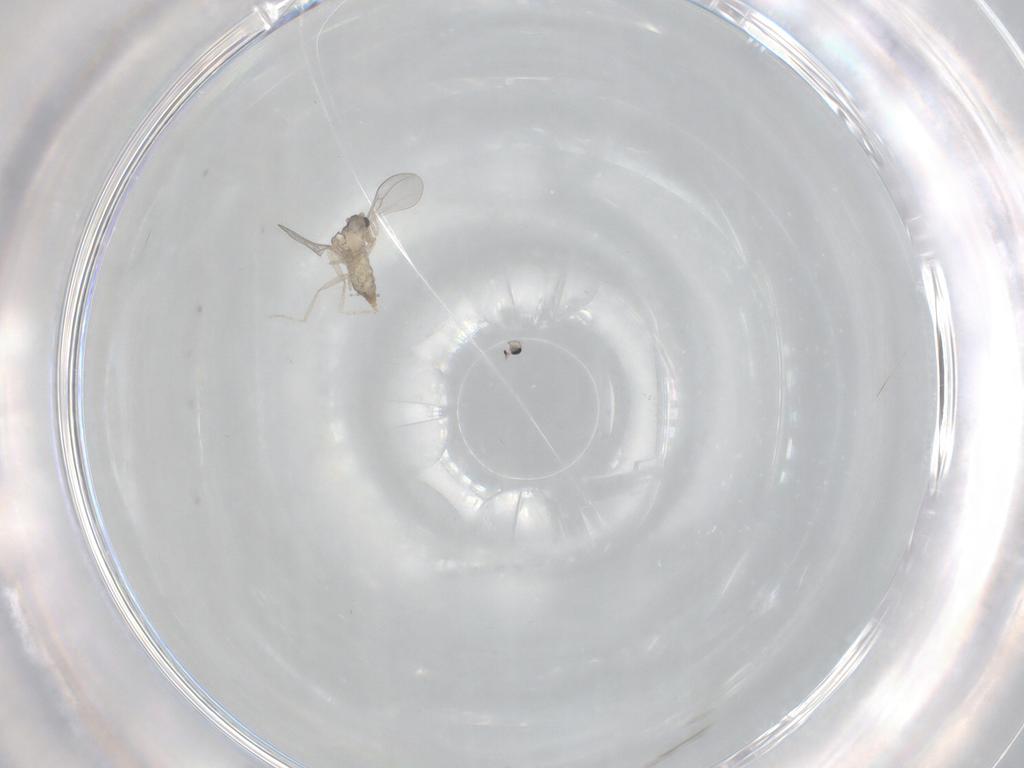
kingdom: Animalia
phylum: Arthropoda
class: Insecta
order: Diptera
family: Cecidomyiidae
